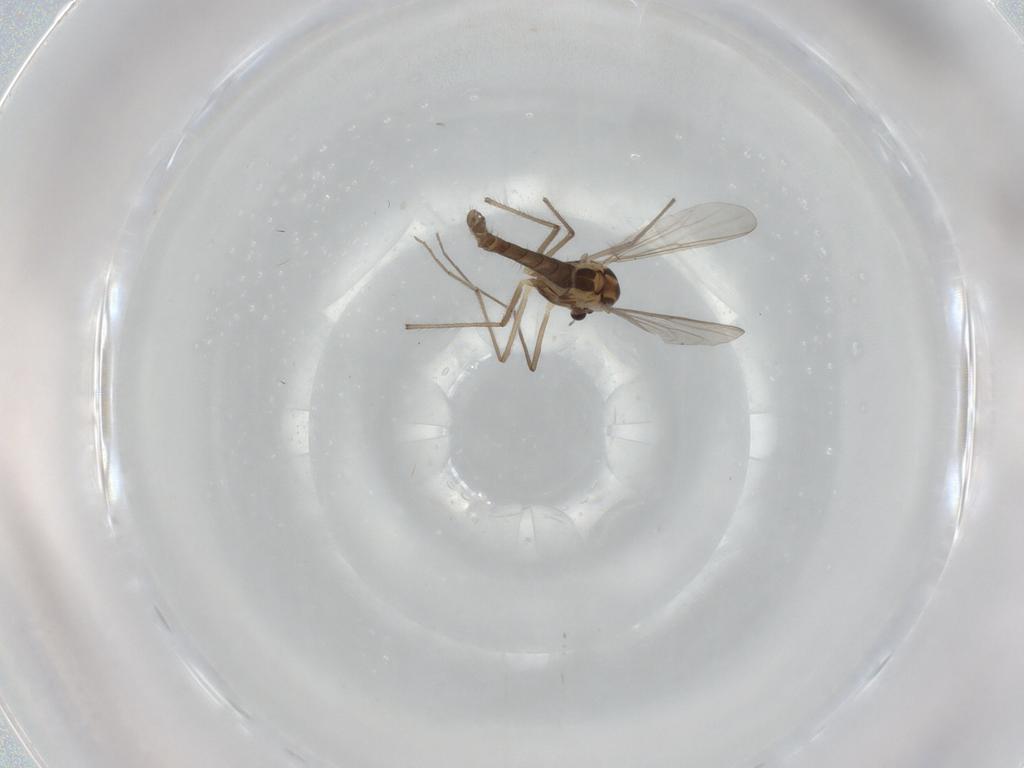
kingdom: Animalia
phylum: Arthropoda
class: Insecta
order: Diptera
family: Chironomidae
